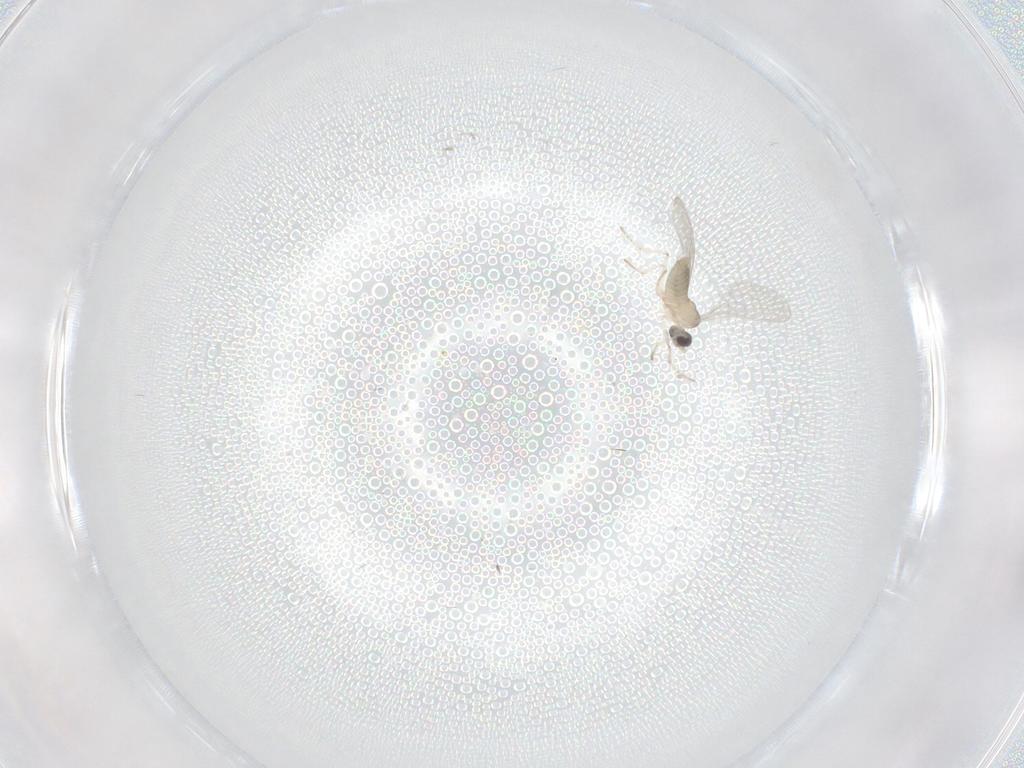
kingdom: Animalia
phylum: Arthropoda
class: Insecta
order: Diptera
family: Cecidomyiidae
